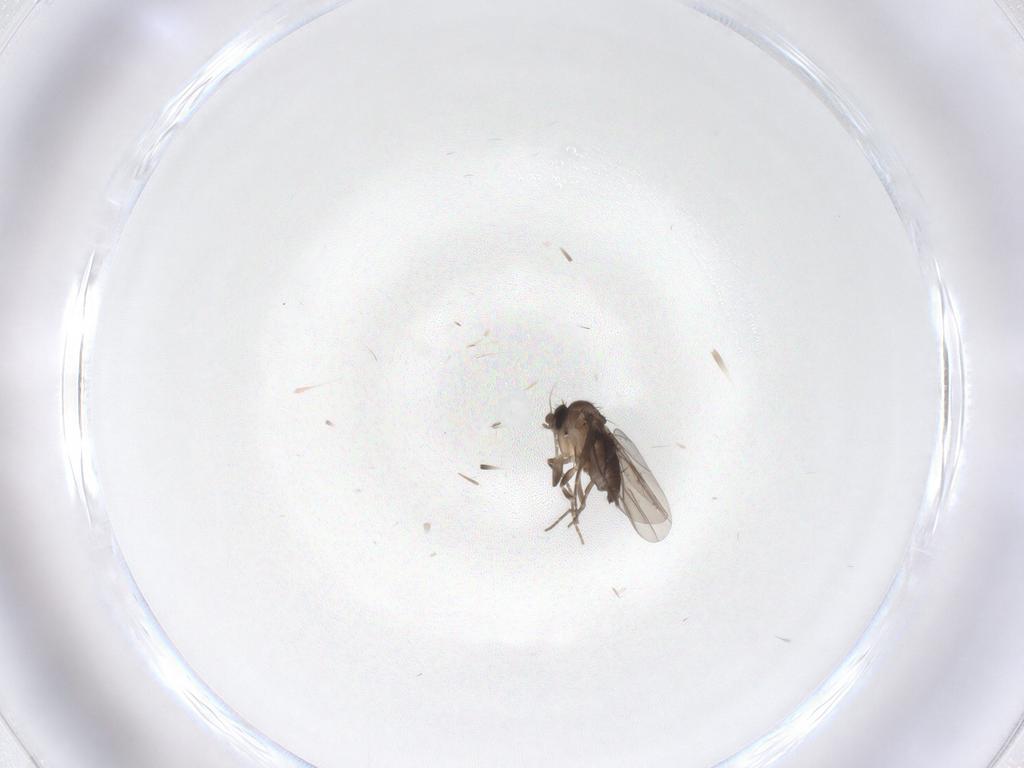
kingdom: Animalia
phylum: Arthropoda
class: Insecta
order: Diptera
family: Phoridae
